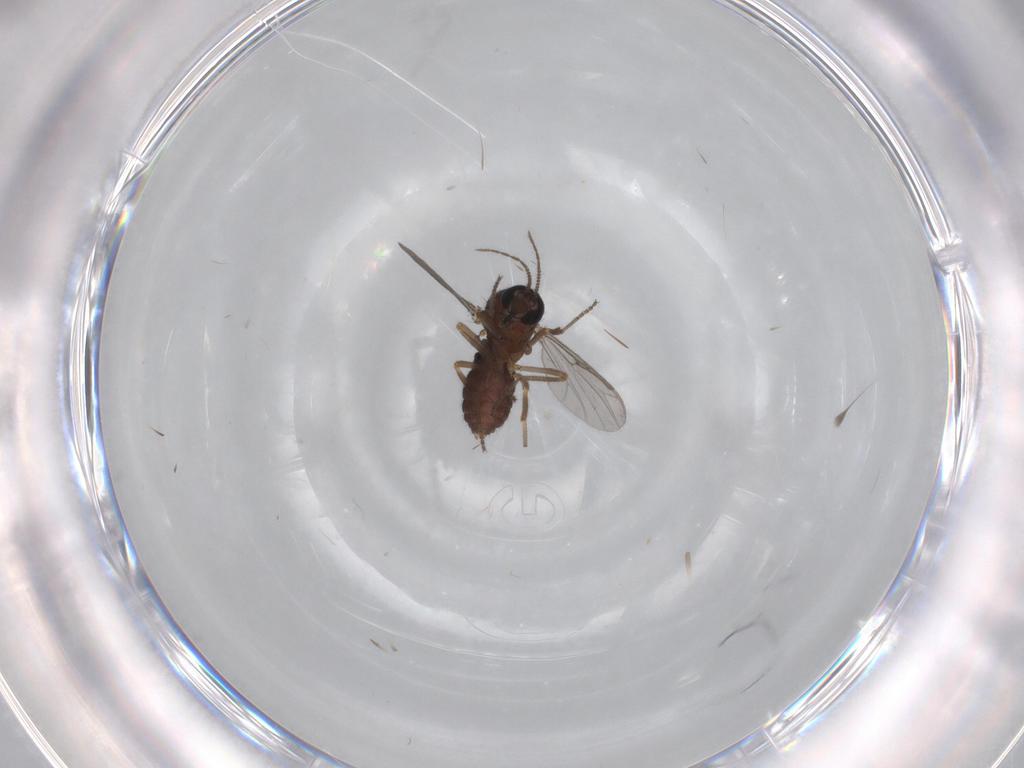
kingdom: Animalia
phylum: Arthropoda
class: Insecta
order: Diptera
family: Ceratopogonidae
